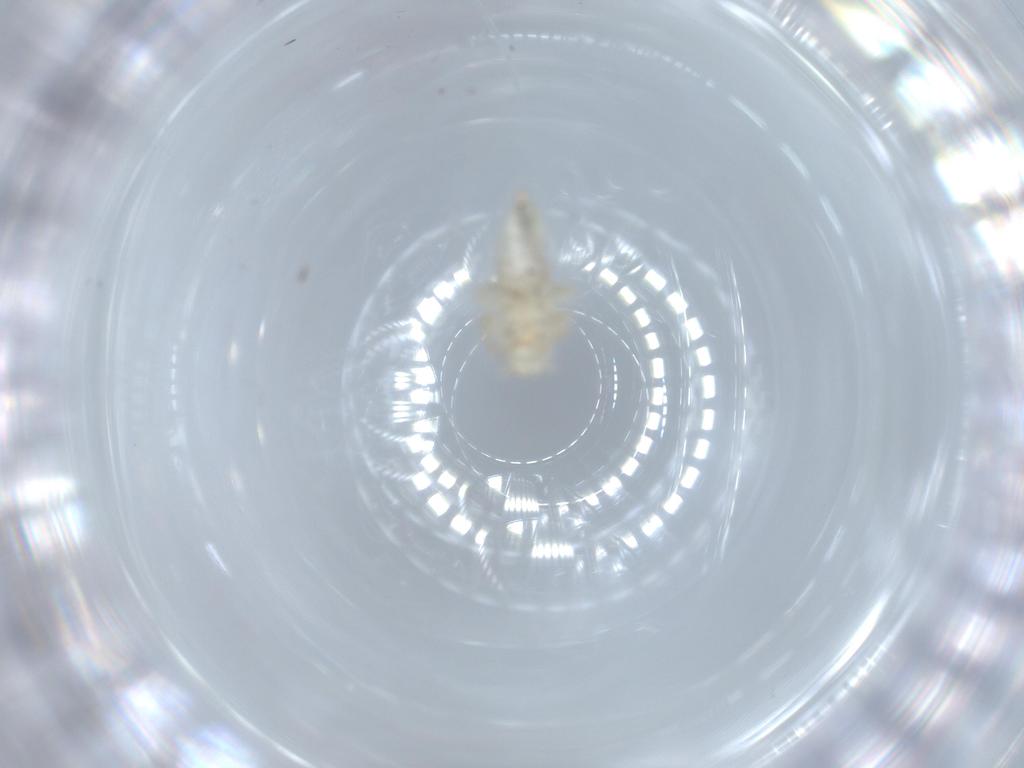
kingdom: Animalia
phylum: Arthropoda
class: Insecta
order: Psocodea
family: Caeciliusidae
